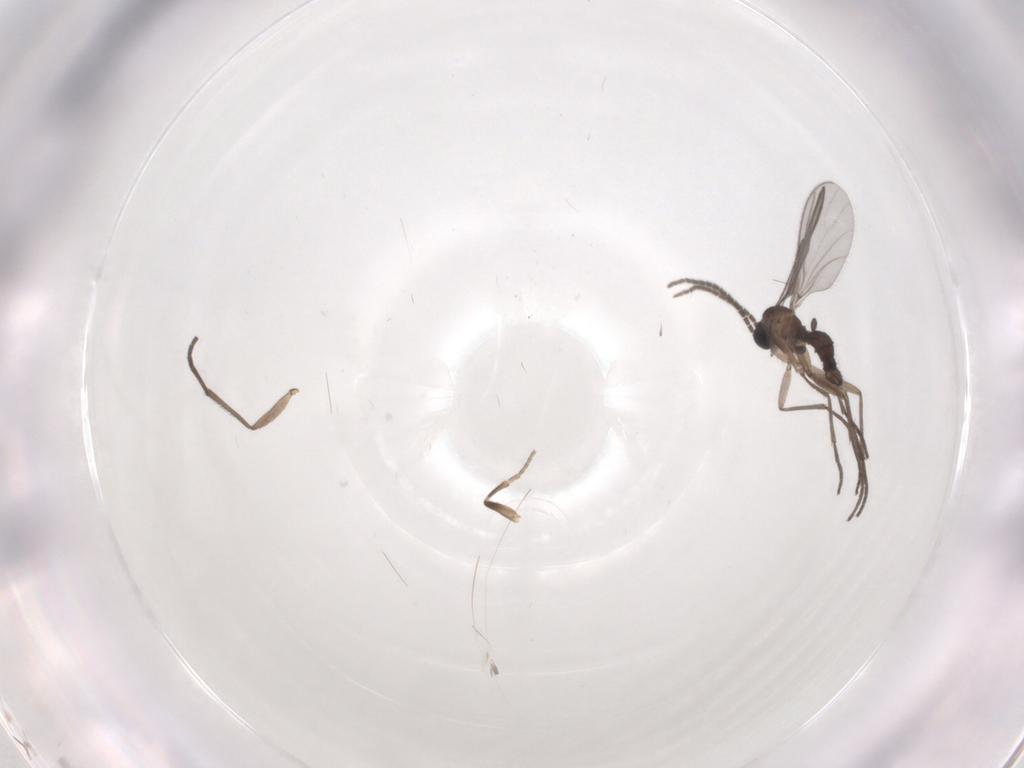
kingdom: Animalia
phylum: Arthropoda
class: Insecta
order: Diptera
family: Sciaridae
